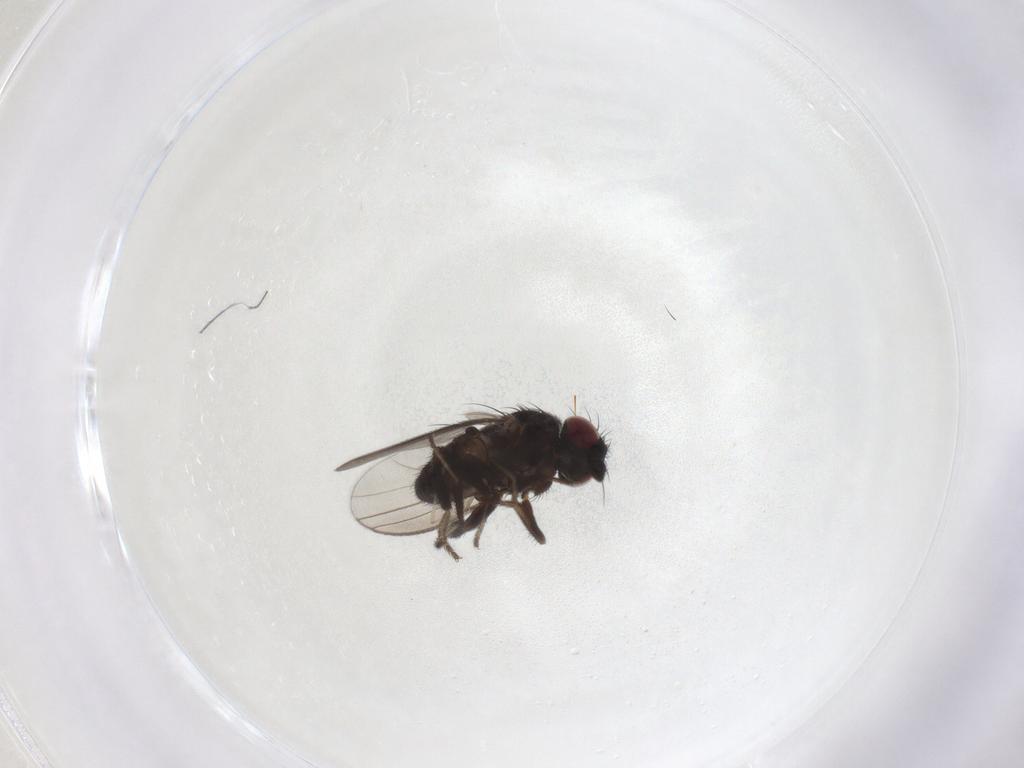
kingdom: Animalia
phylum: Arthropoda
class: Insecta
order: Diptera
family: Milichiidae
